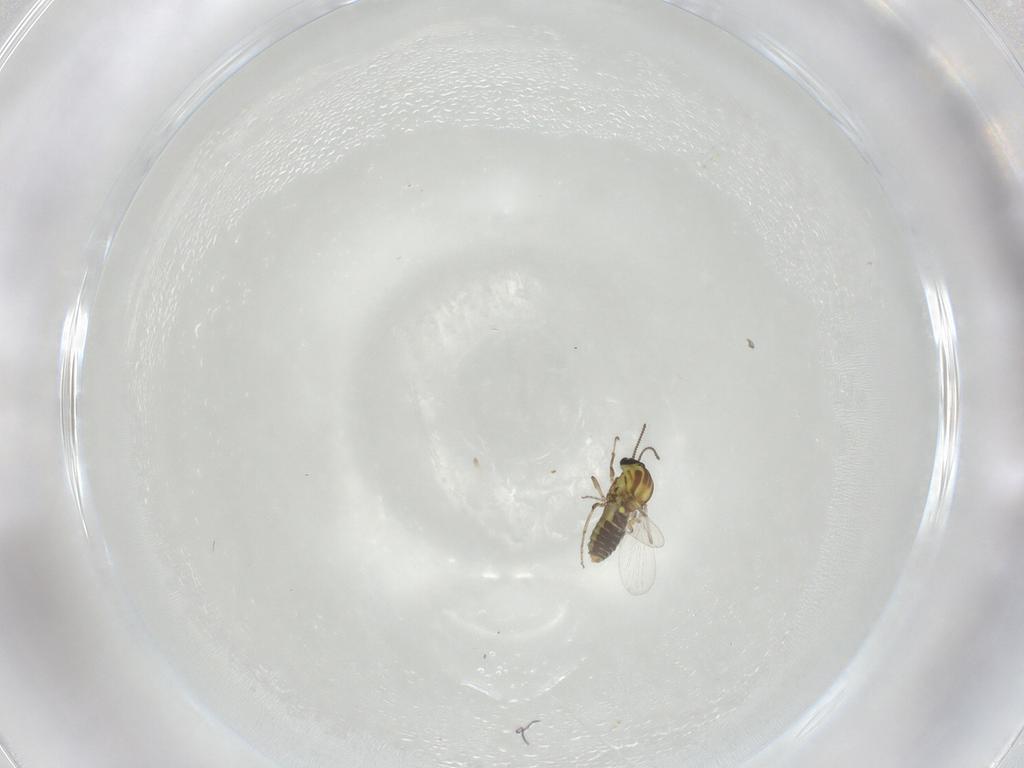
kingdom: Animalia
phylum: Arthropoda
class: Insecta
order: Diptera
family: Phoridae
